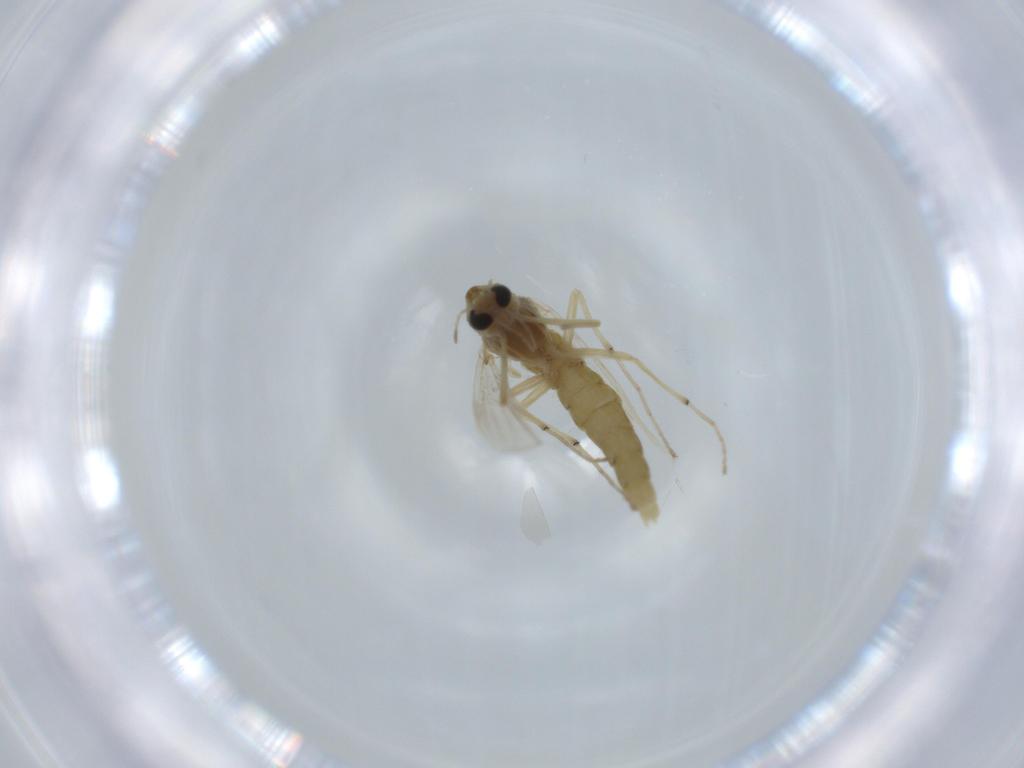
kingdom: Animalia
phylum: Arthropoda
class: Insecta
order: Diptera
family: Chironomidae
